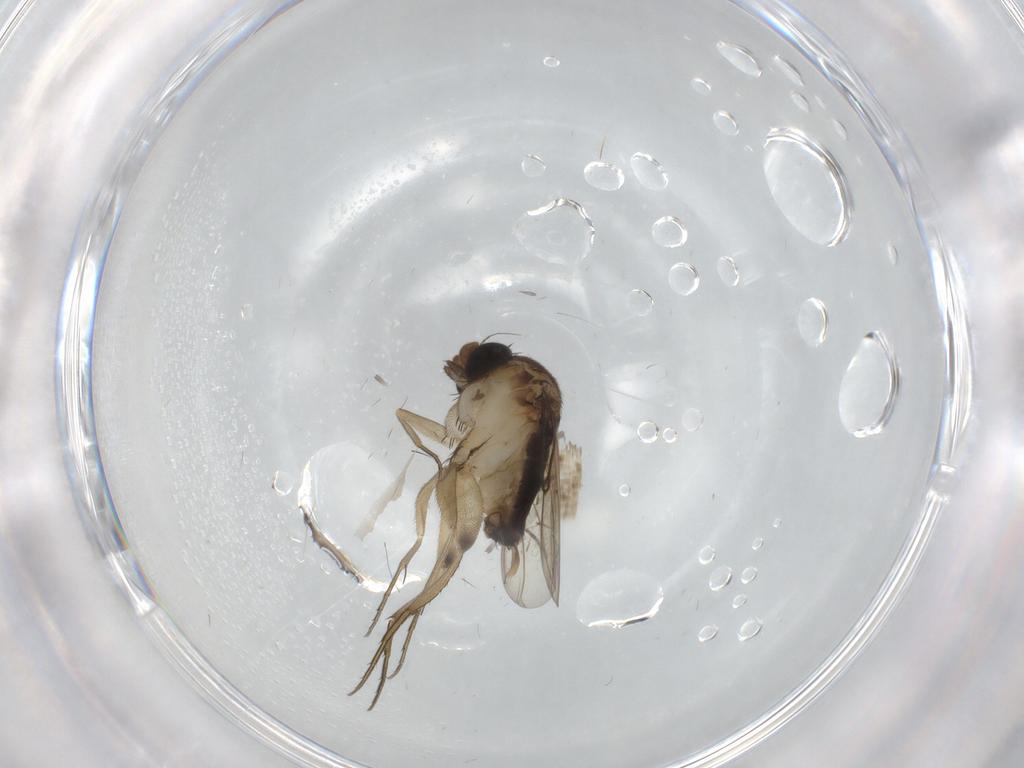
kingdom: Animalia
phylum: Arthropoda
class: Insecta
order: Diptera
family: Phoridae
